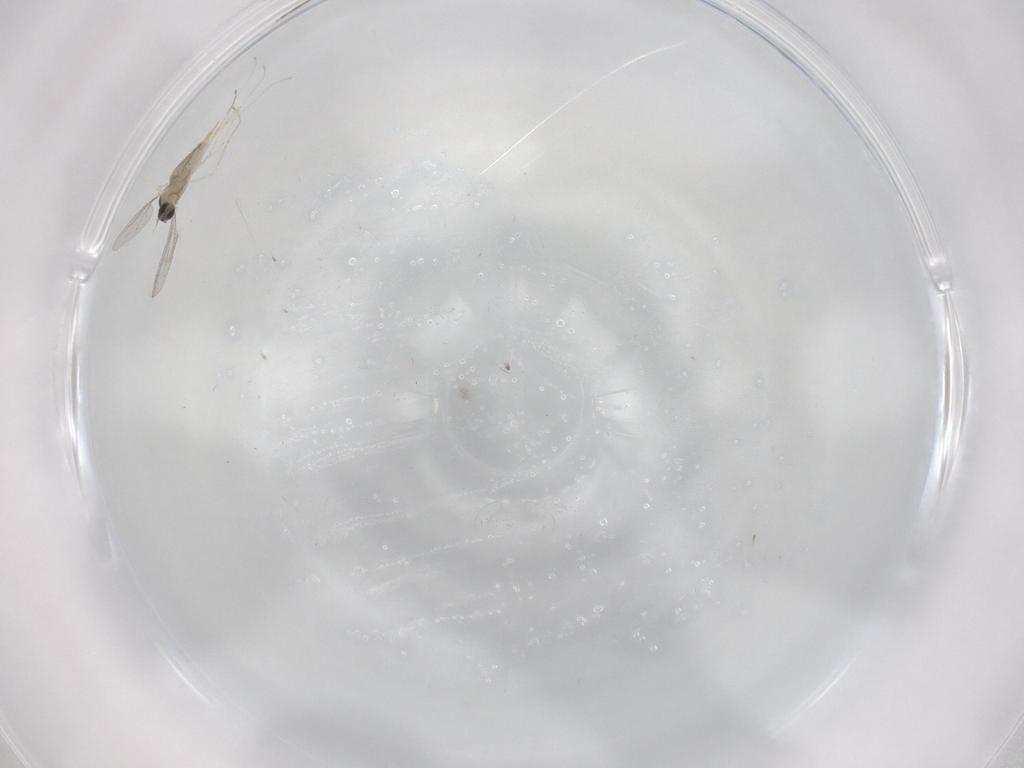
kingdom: Animalia
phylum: Arthropoda
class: Insecta
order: Diptera
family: Cecidomyiidae
